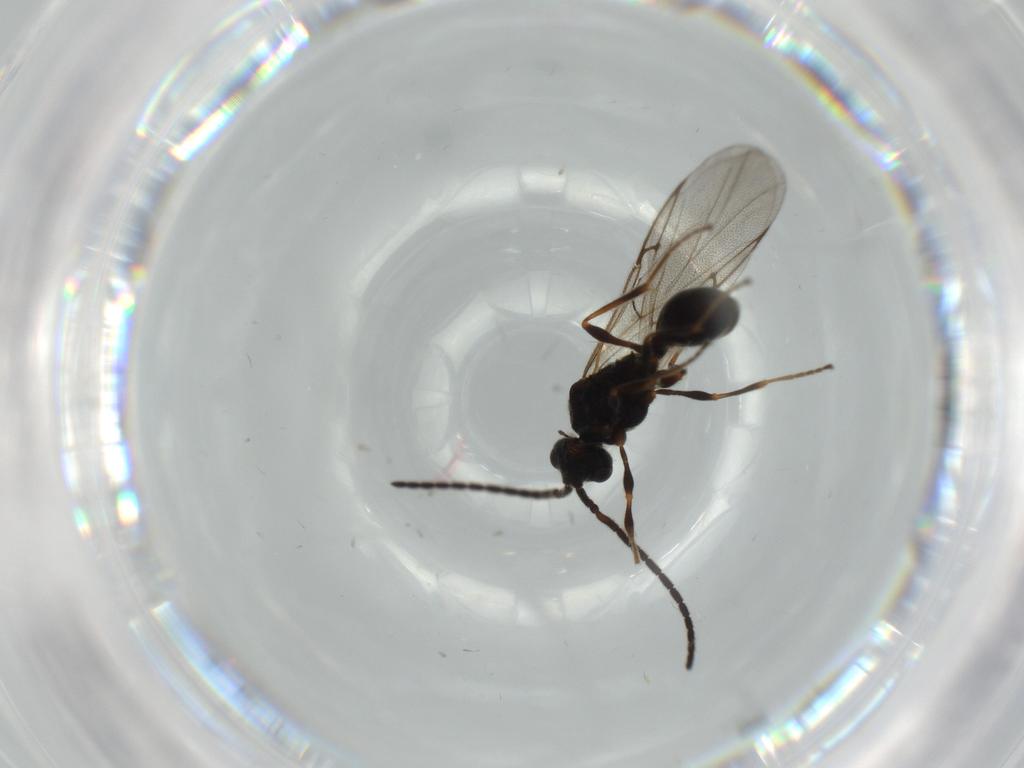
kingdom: Animalia
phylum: Arthropoda
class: Insecta
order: Hymenoptera
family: Diapriidae
